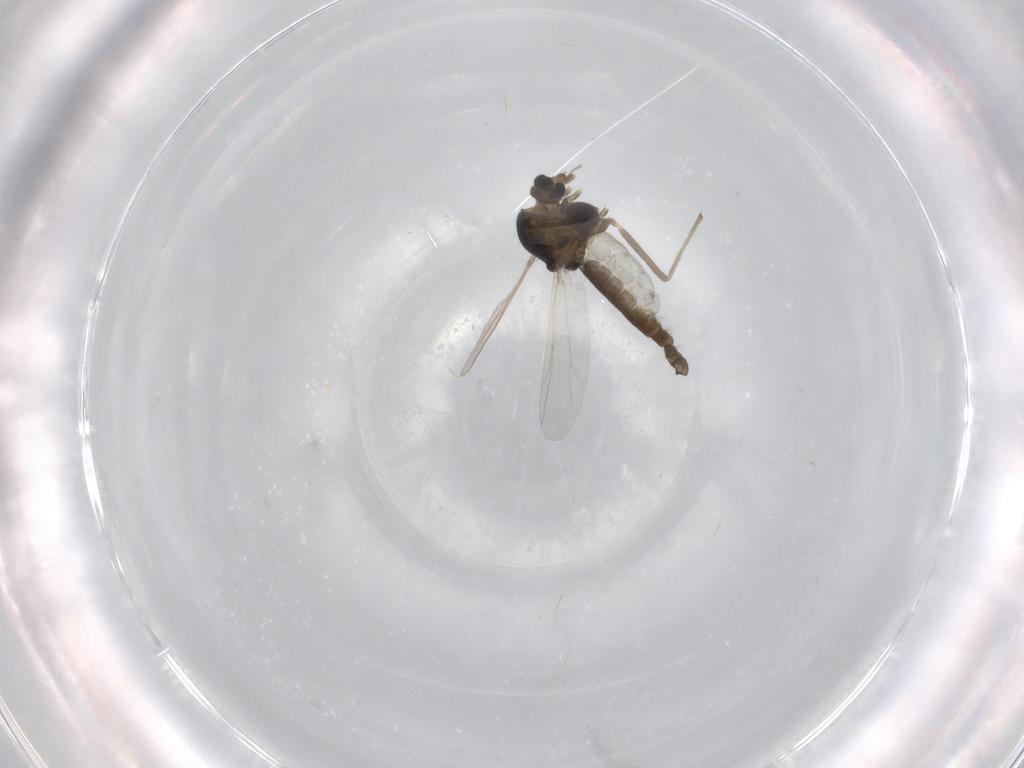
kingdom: Animalia
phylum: Arthropoda
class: Insecta
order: Diptera
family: Chironomidae
